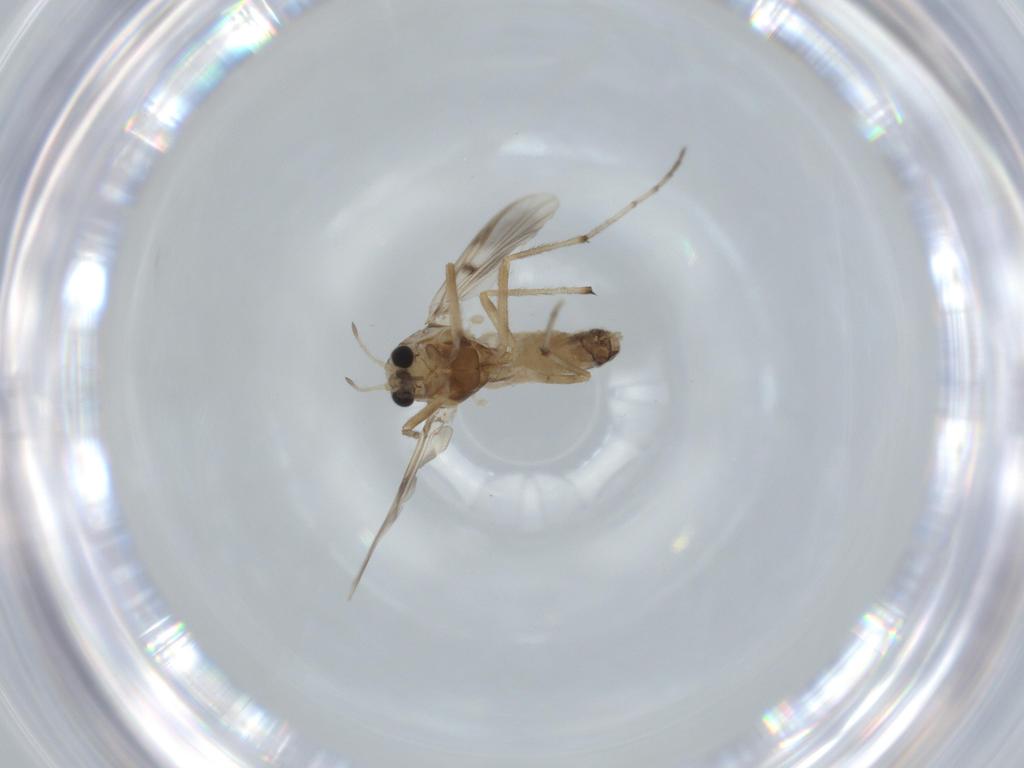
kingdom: Animalia
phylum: Arthropoda
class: Insecta
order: Diptera
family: Chironomidae
